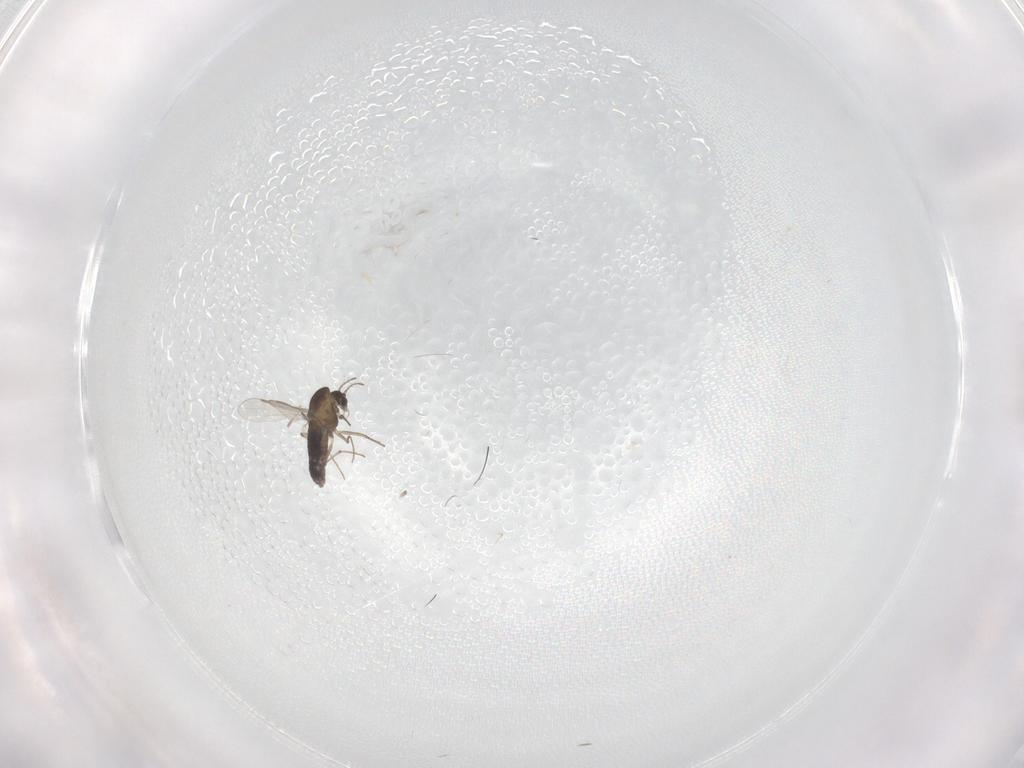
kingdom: Animalia
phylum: Arthropoda
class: Insecta
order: Diptera
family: Chironomidae
